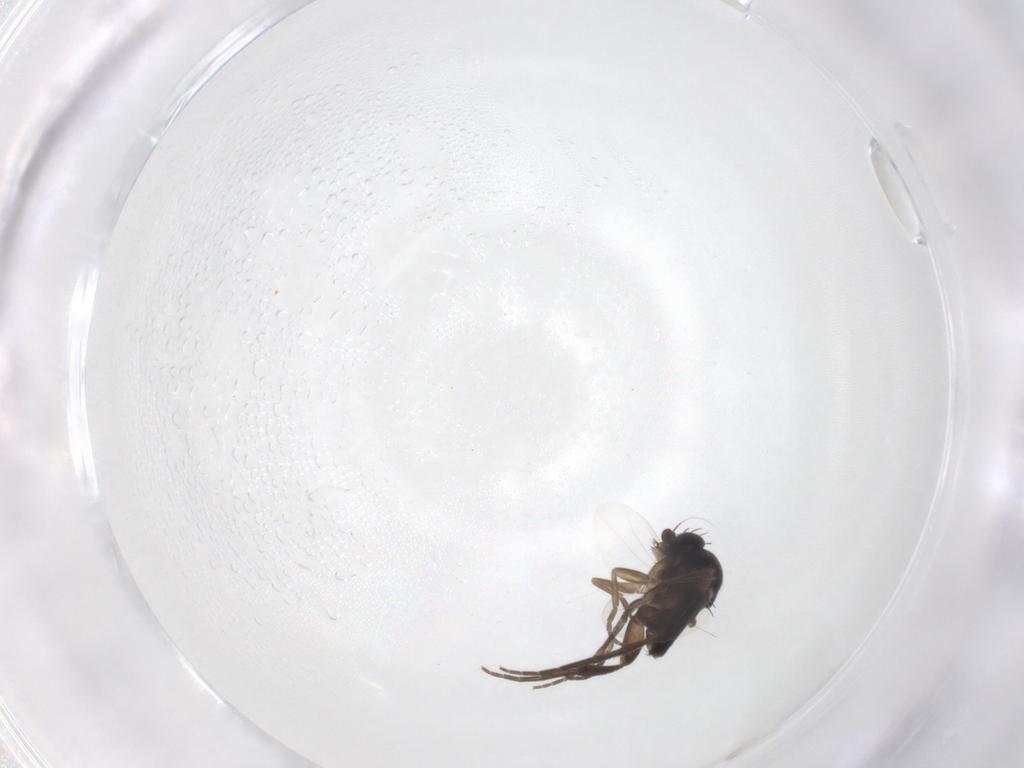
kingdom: Animalia
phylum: Arthropoda
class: Insecta
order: Diptera
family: Phoridae
